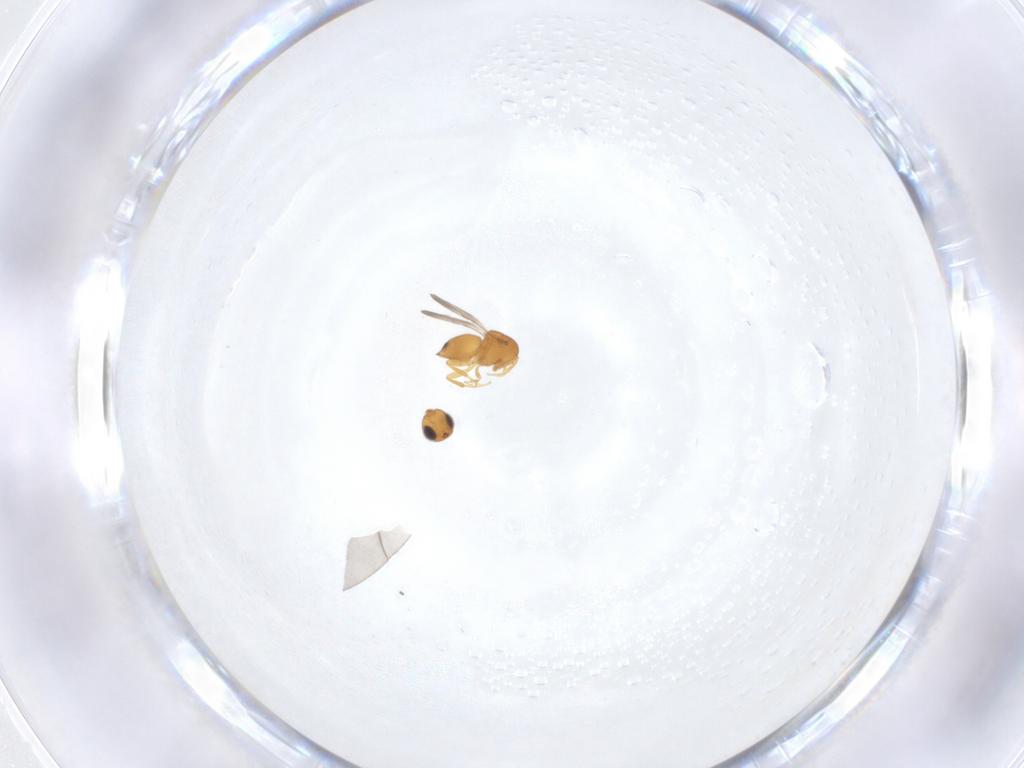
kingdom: Animalia
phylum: Arthropoda
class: Insecta
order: Hymenoptera
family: Ceraphronidae
